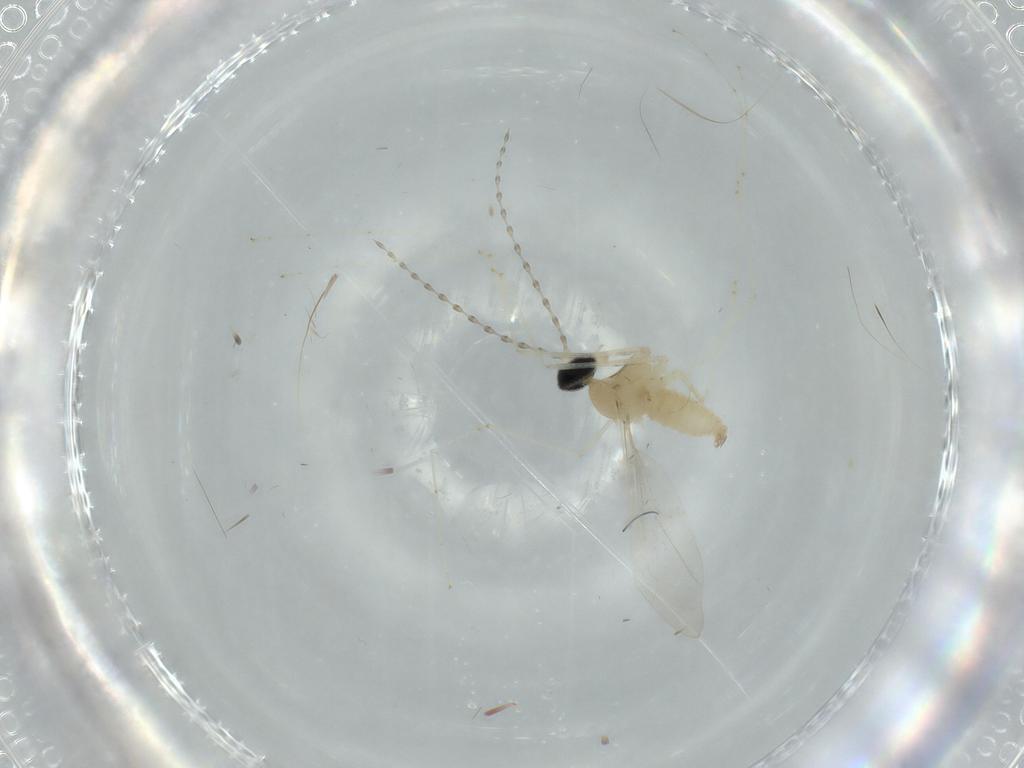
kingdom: Animalia
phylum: Arthropoda
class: Insecta
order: Diptera
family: Cecidomyiidae
